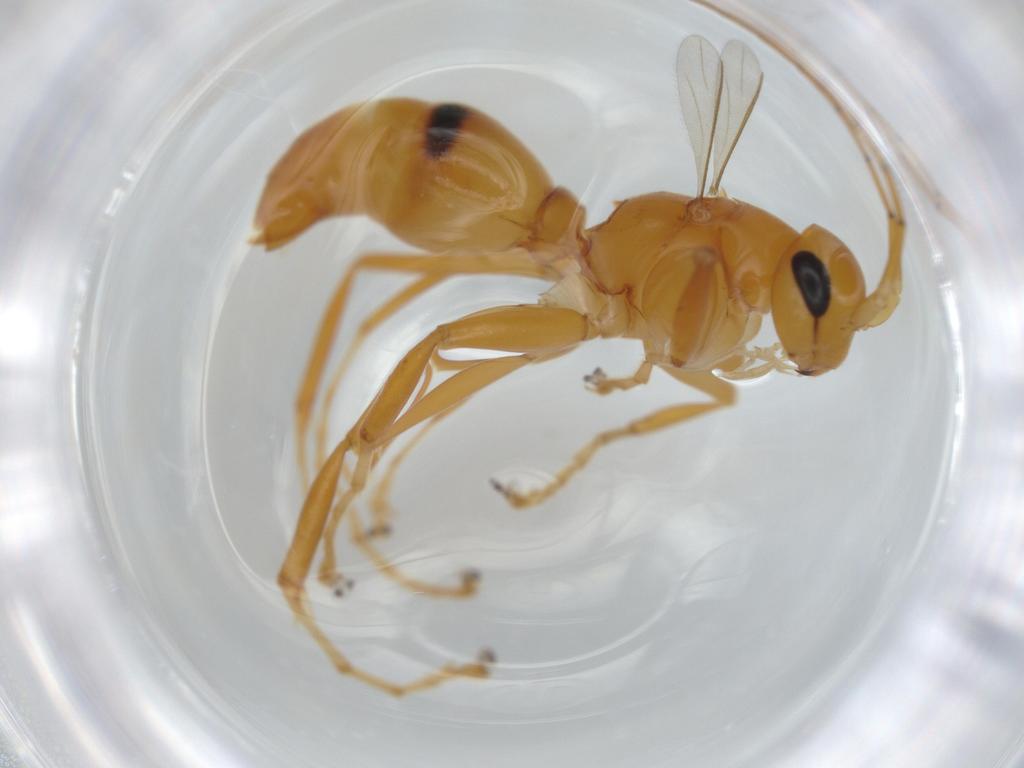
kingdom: Animalia
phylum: Arthropoda
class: Insecta
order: Hymenoptera
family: Rhopalosomatidae
